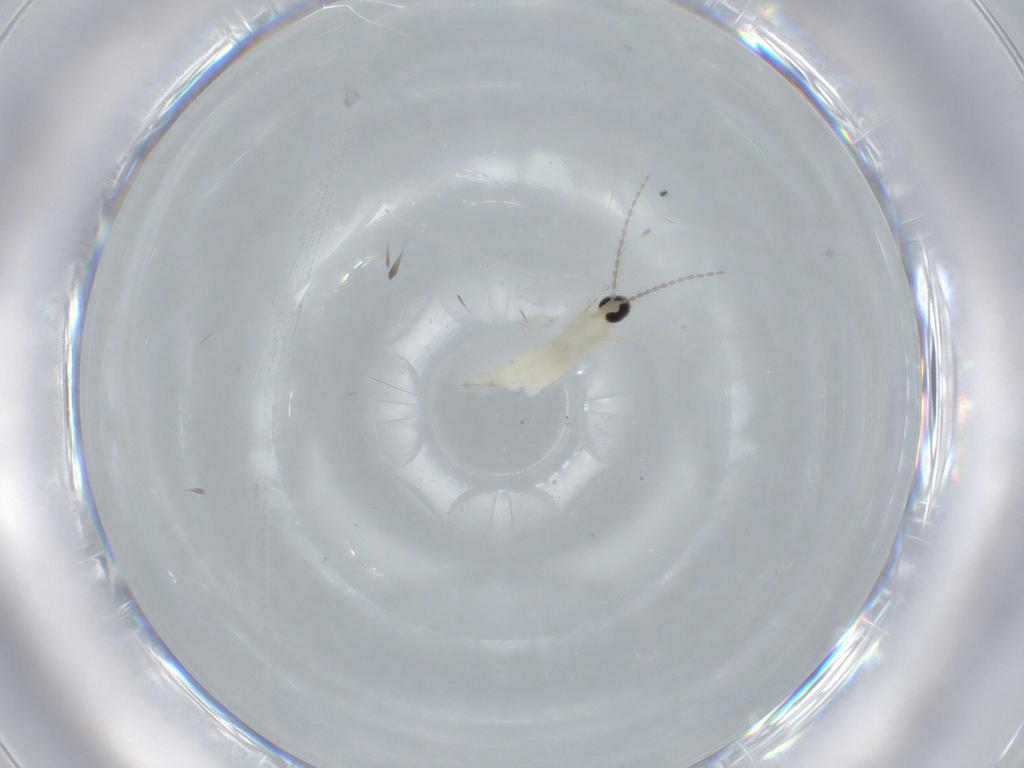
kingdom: Animalia
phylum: Arthropoda
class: Insecta
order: Diptera
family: Cecidomyiidae
